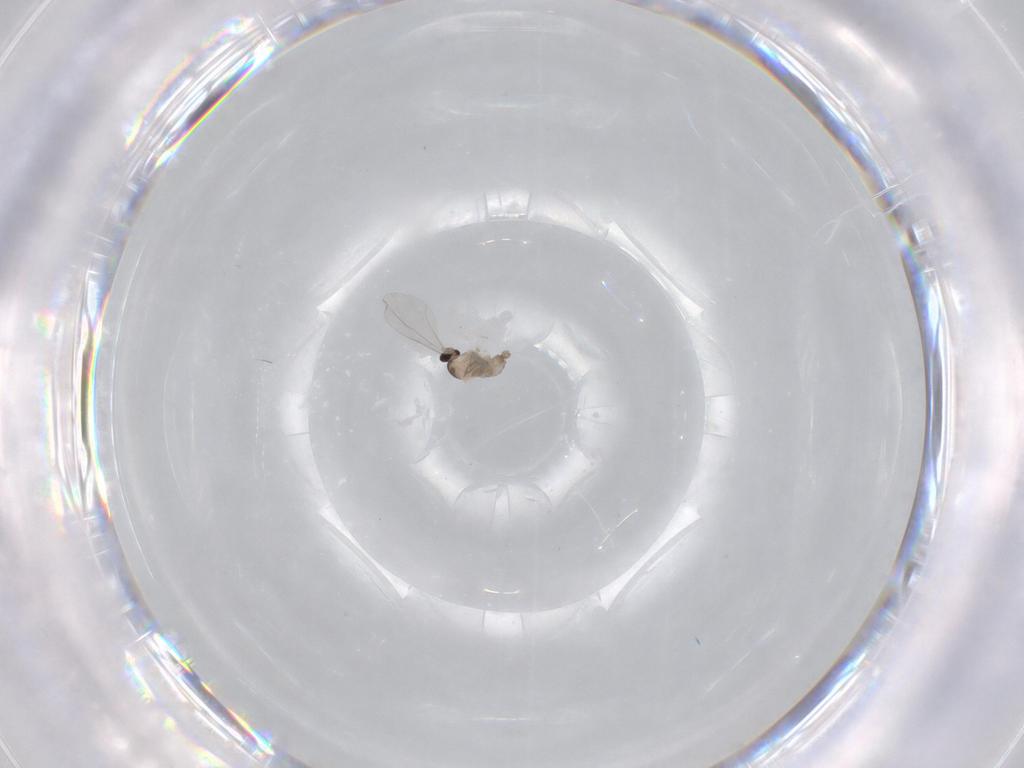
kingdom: Animalia
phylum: Arthropoda
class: Insecta
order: Diptera
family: Cecidomyiidae
